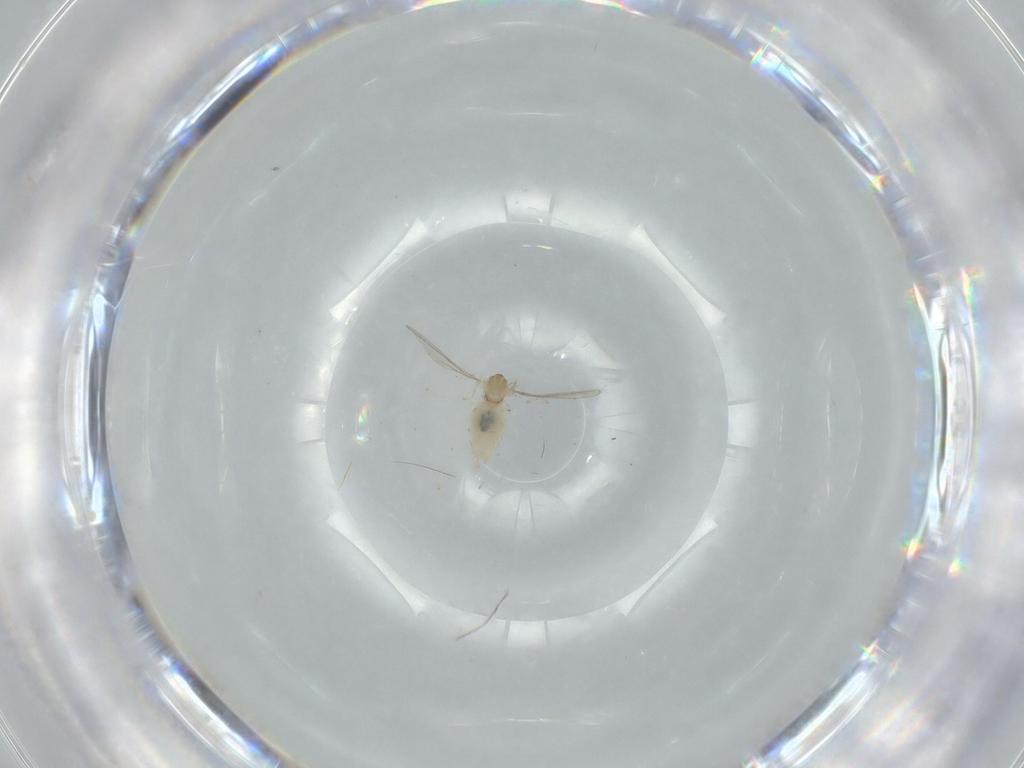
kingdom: Animalia
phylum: Arthropoda
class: Insecta
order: Diptera
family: Cecidomyiidae
